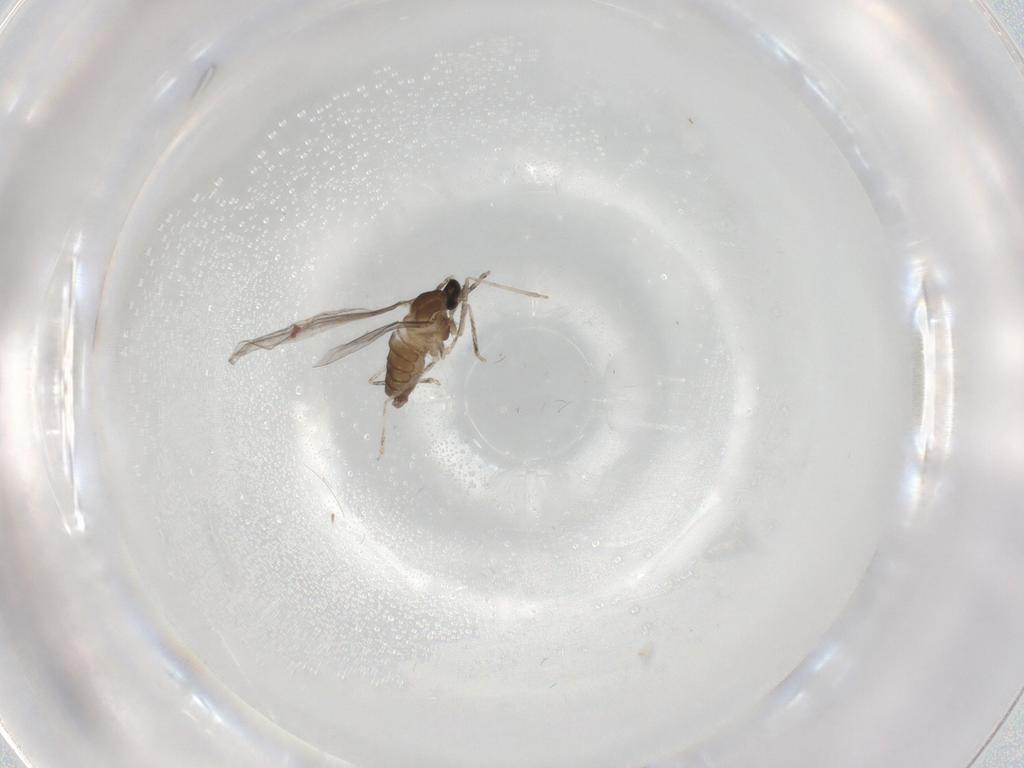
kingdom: Animalia
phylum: Arthropoda
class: Insecta
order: Diptera
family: Cecidomyiidae
